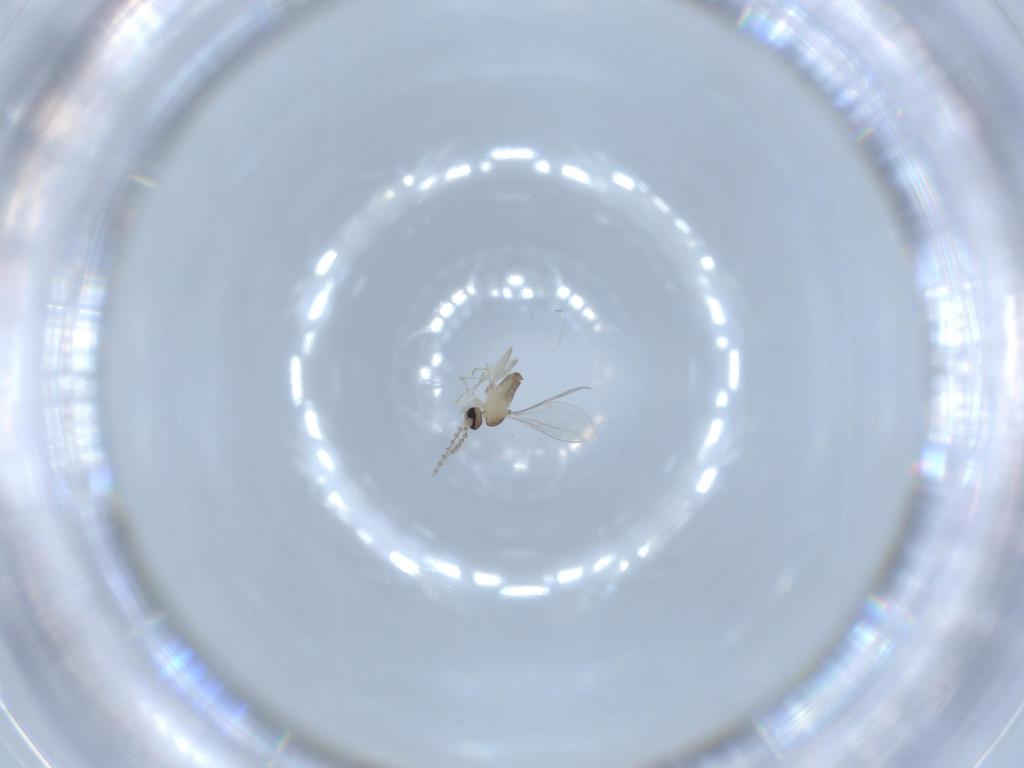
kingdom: Animalia
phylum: Arthropoda
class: Insecta
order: Diptera
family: Cecidomyiidae
